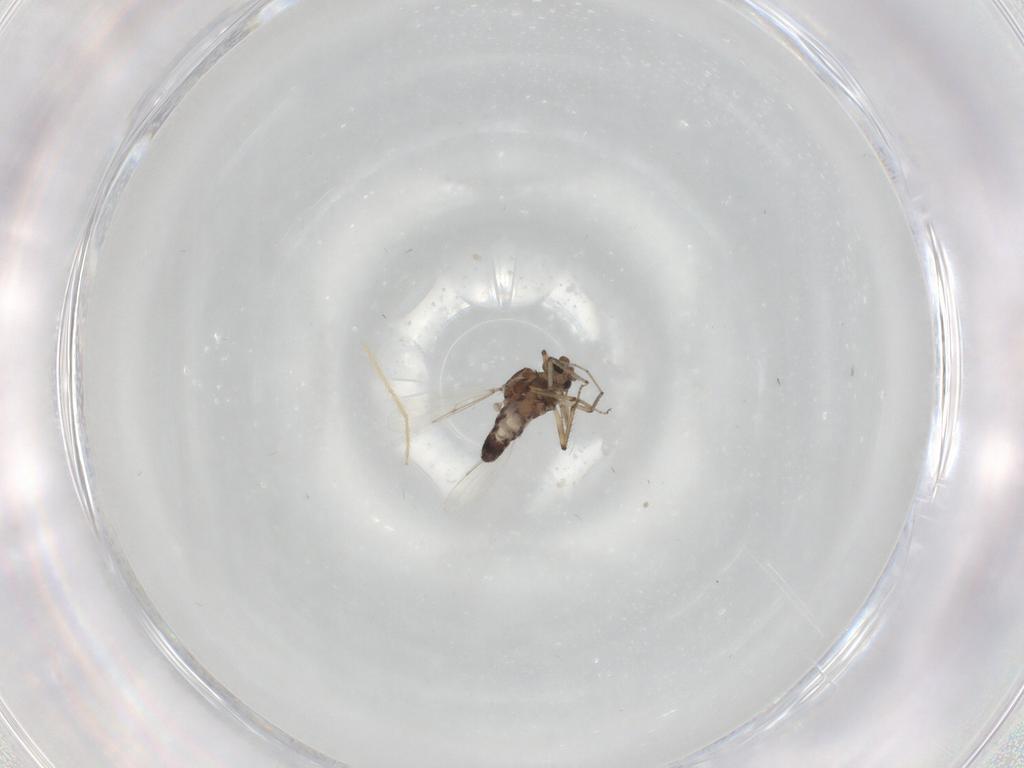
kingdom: Animalia
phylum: Arthropoda
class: Insecta
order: Diptera
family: Ceratopogonidae
